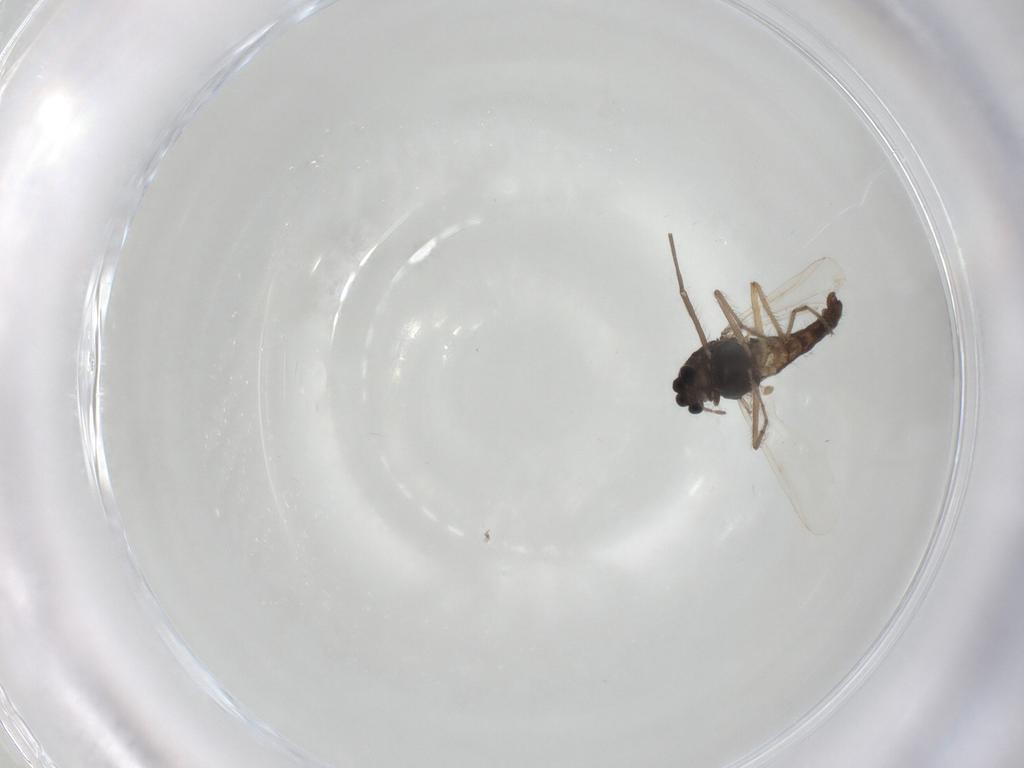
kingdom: Animalia
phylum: Arthropoda
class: Insecta
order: Diptera
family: Chironomidae
